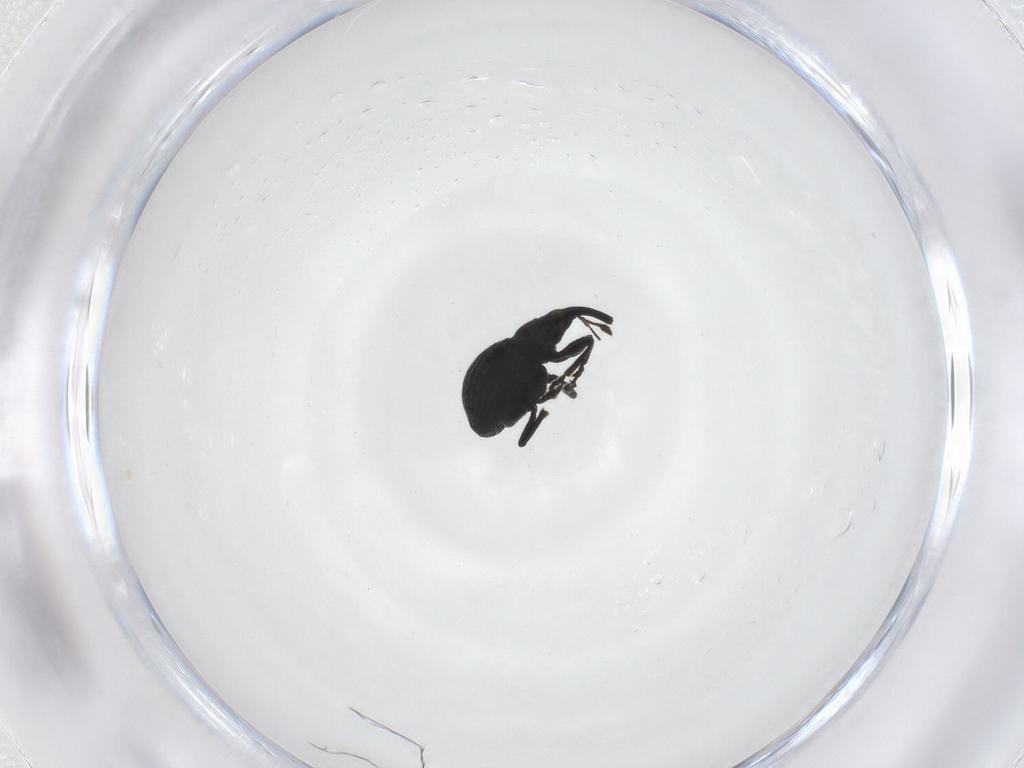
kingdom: Animalia
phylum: Arthropoda
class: Insecta
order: Coleoptera
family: Brentidae
